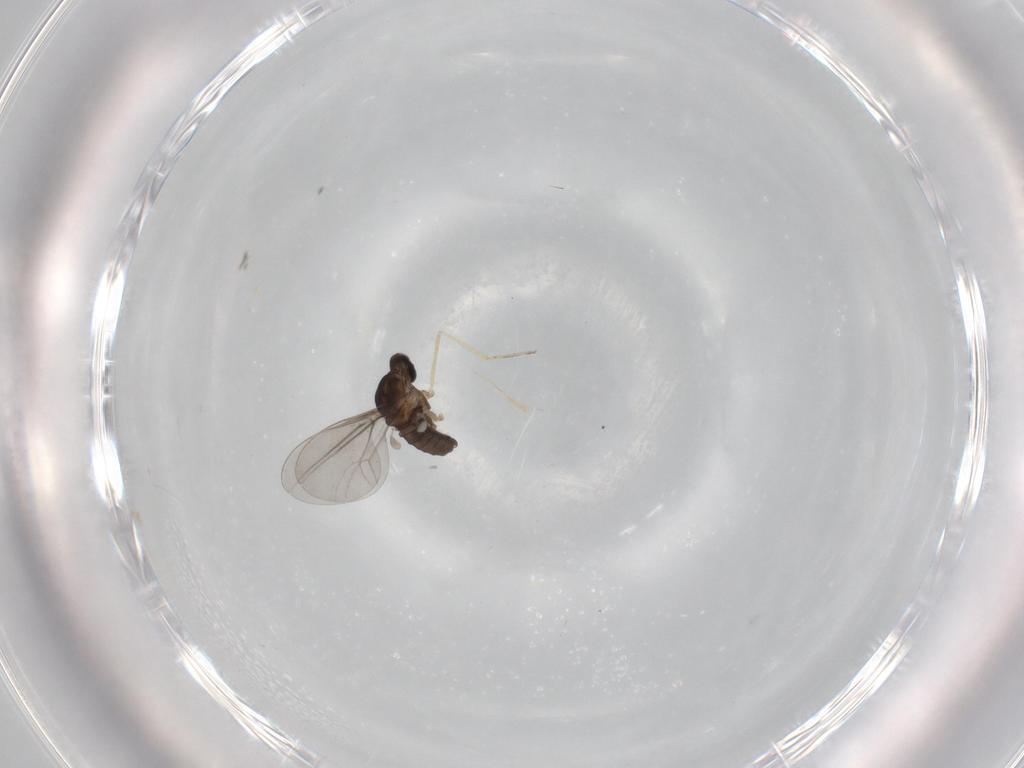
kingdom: Animalia
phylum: Arthropoda
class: Insecta
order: Diptera
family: Cecidomyiidae
